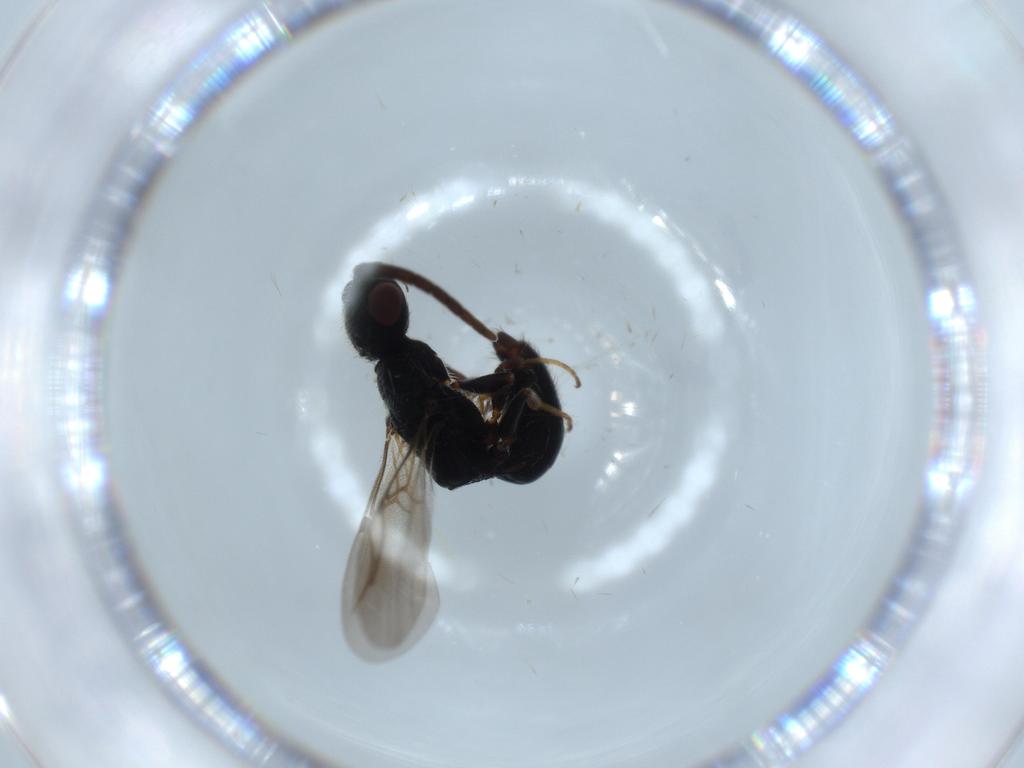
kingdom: Animalia
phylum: Arthropoda
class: Insecta
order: Hymenoptera
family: Bethylidae
